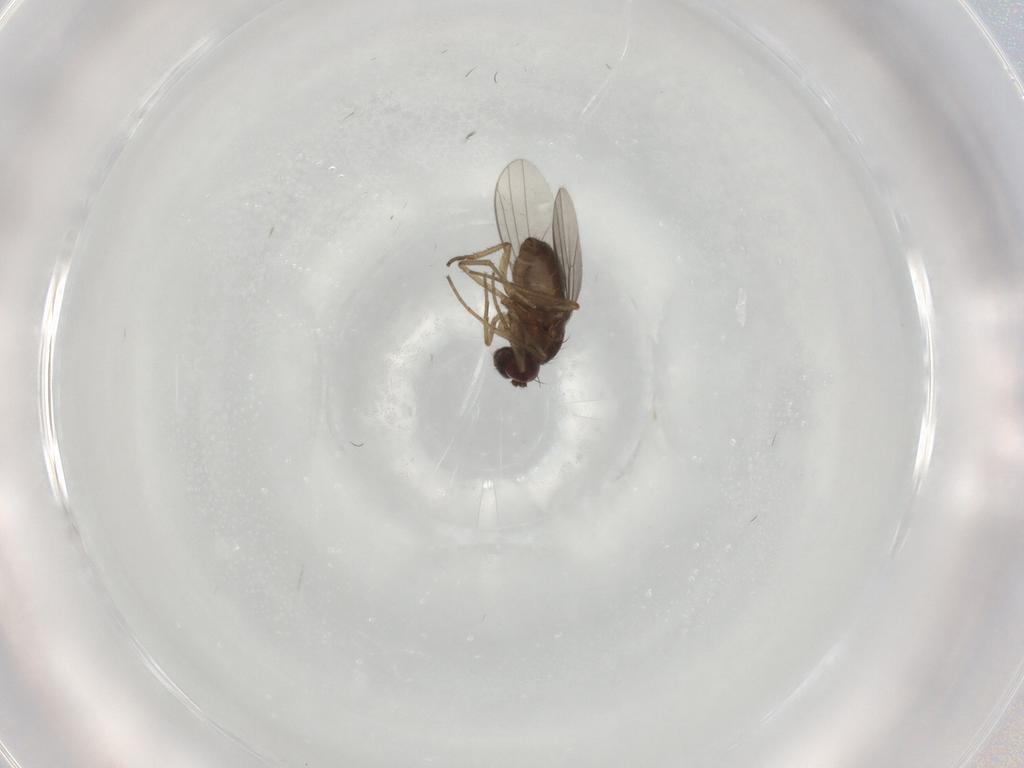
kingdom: Animalia
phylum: Arthropoda
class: Insecta
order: Diptera
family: Dolichopodidae
